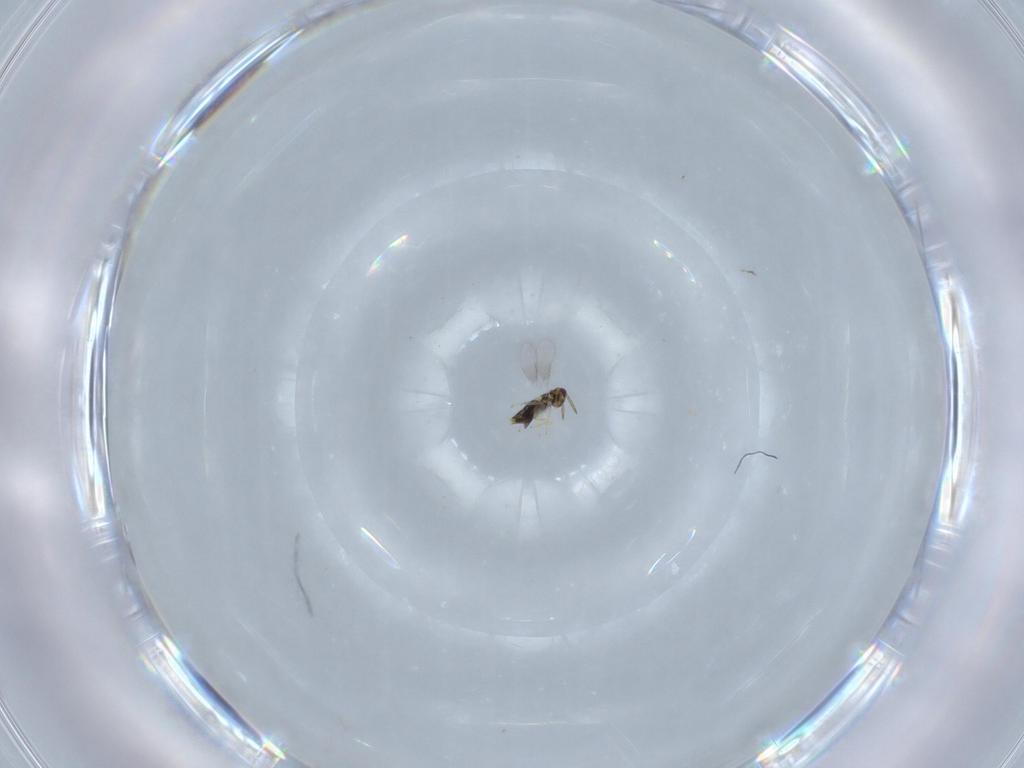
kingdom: Animalia
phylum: Arthropoda
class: Insecta
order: Hymenoptera
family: Aphelinidae
